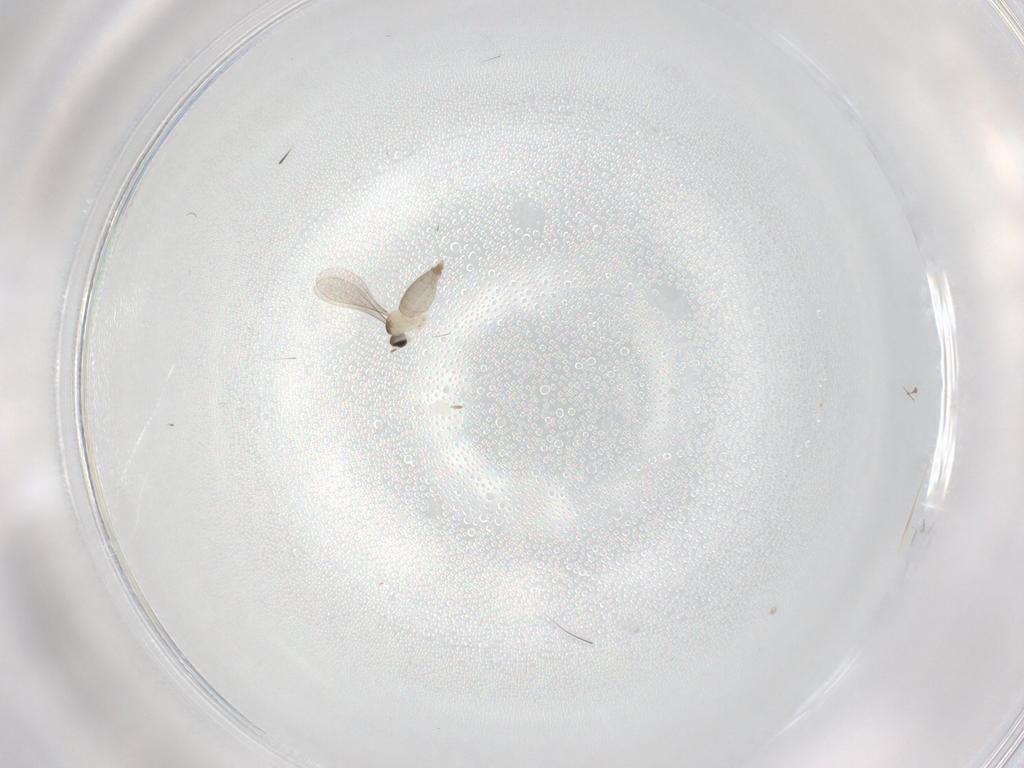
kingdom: Animalia
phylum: Arthropoda
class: Insecta
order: Diptera
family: Cecidomyiidae
